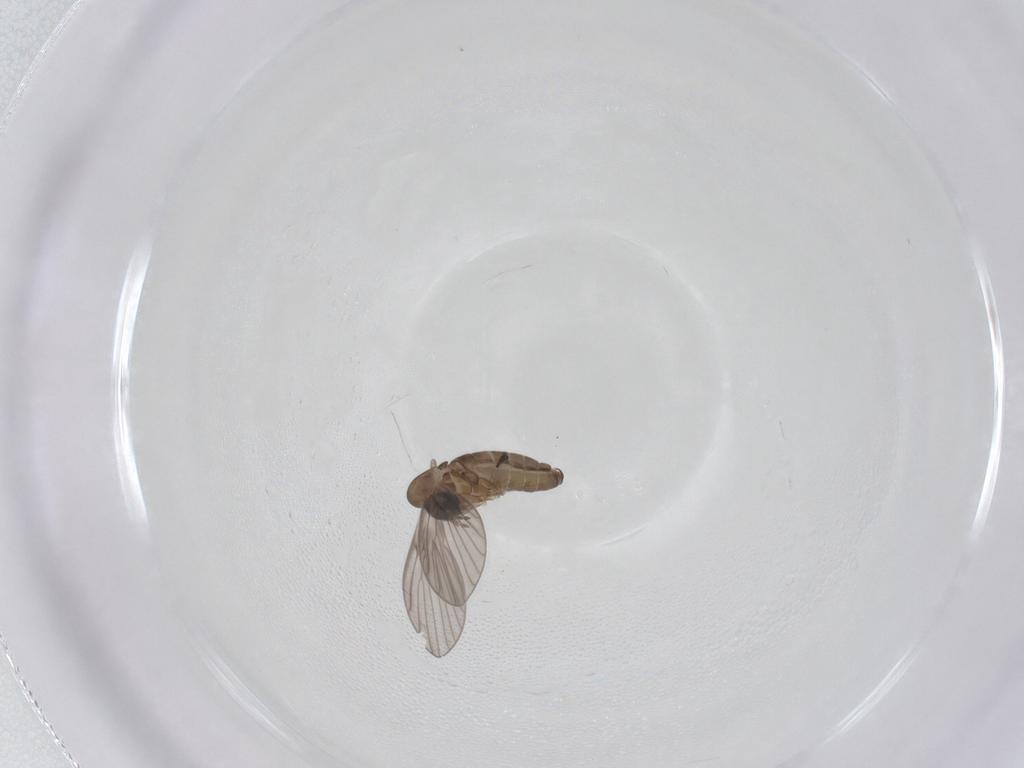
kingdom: Animalia
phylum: Arthropoda
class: Insecta
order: Diptera
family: Psychodidae
